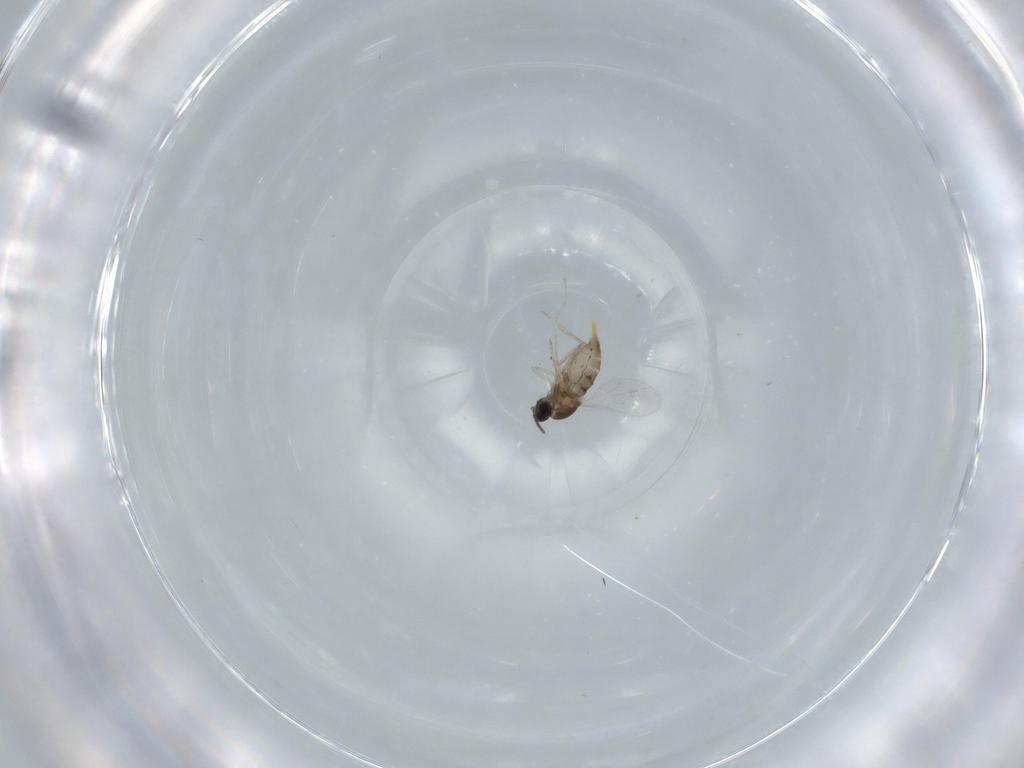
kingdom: Animalia
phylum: Arthropoda
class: Insecta
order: Diptera
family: Cecidomyiidae
